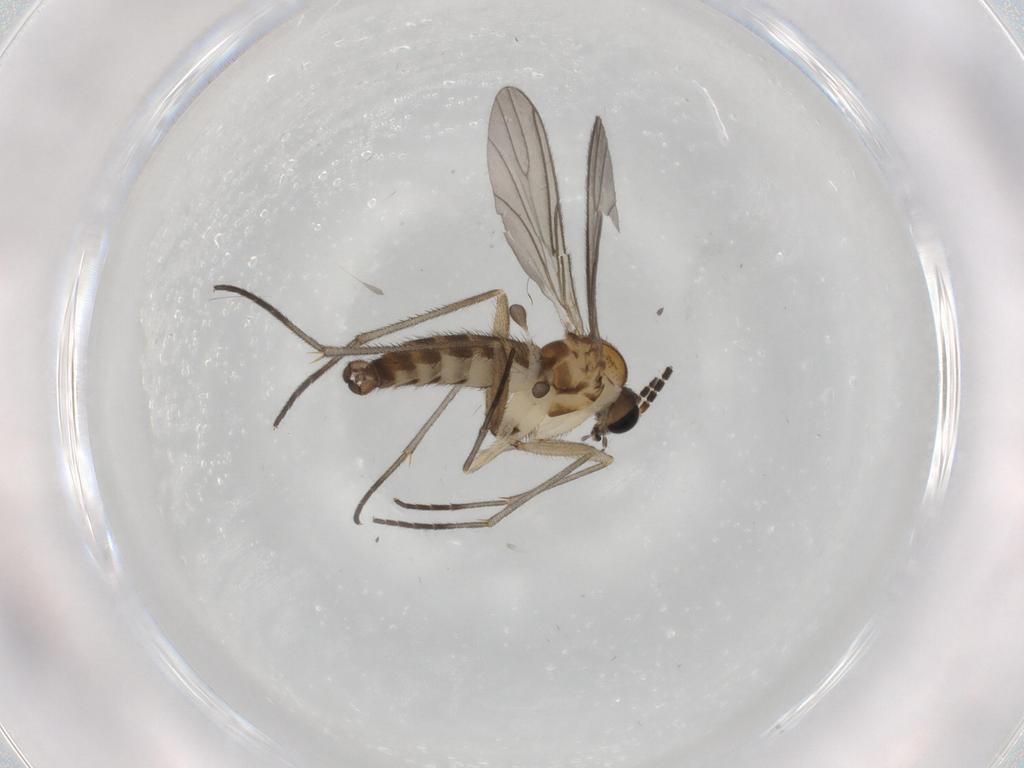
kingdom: Animalia
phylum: Arthropoda
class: Insecta
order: Diptera
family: Sciaridae
